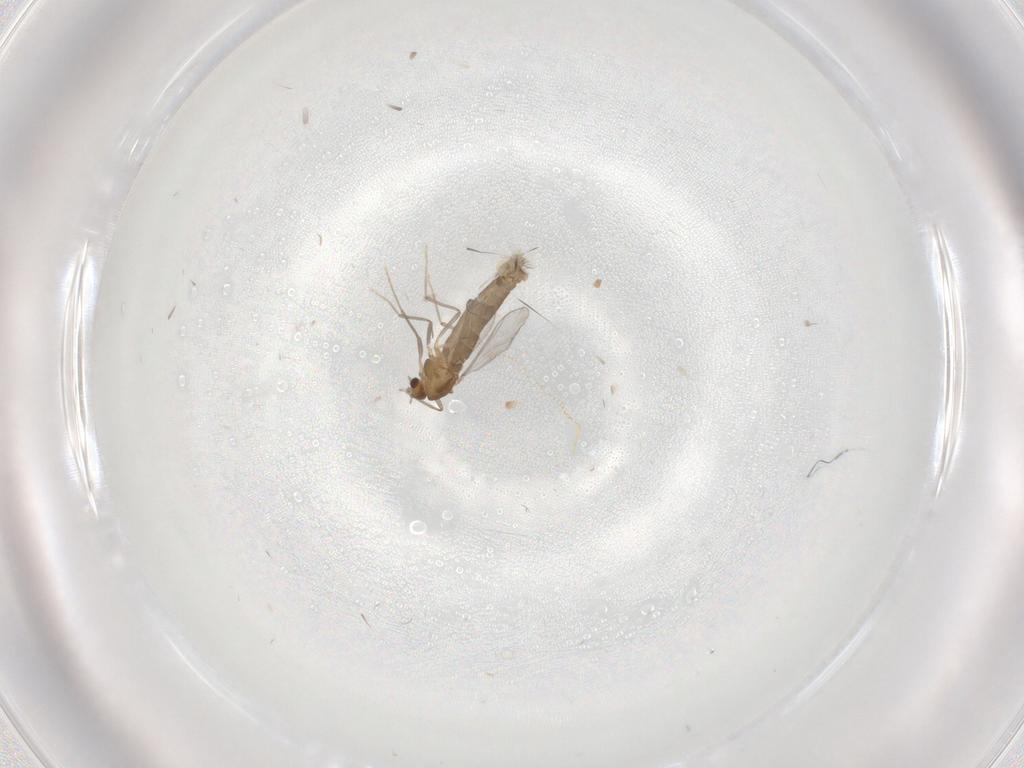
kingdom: Animalia
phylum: Arthropoda
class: Insecta
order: Diptera
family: Chironomidae
